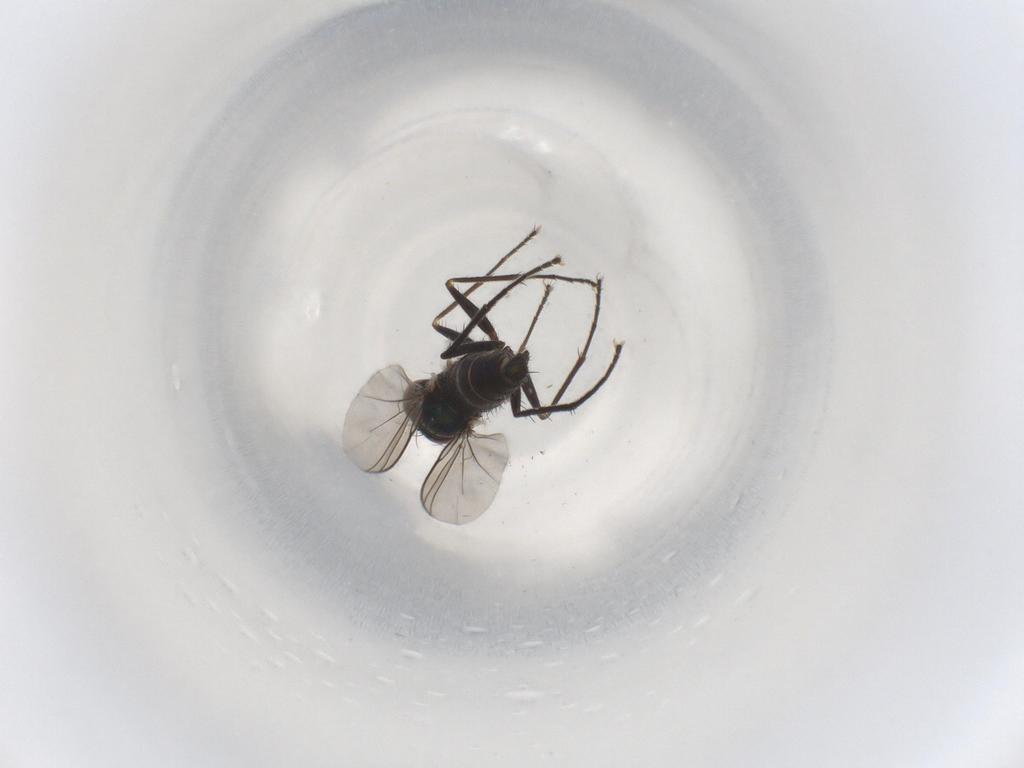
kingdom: Animalia
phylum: Arthropoda
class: Insecta
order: Diptera
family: Dolichopodidae
